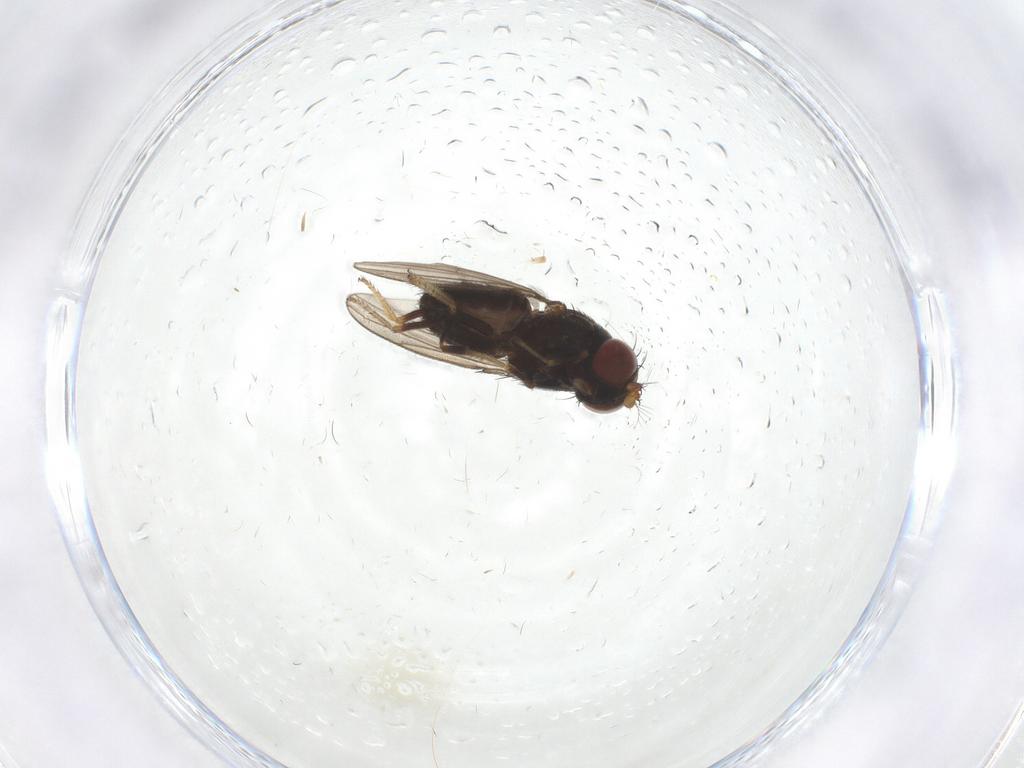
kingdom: Animalia
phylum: Arthropoda
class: Insecta
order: Diptera
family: Ephydridae
